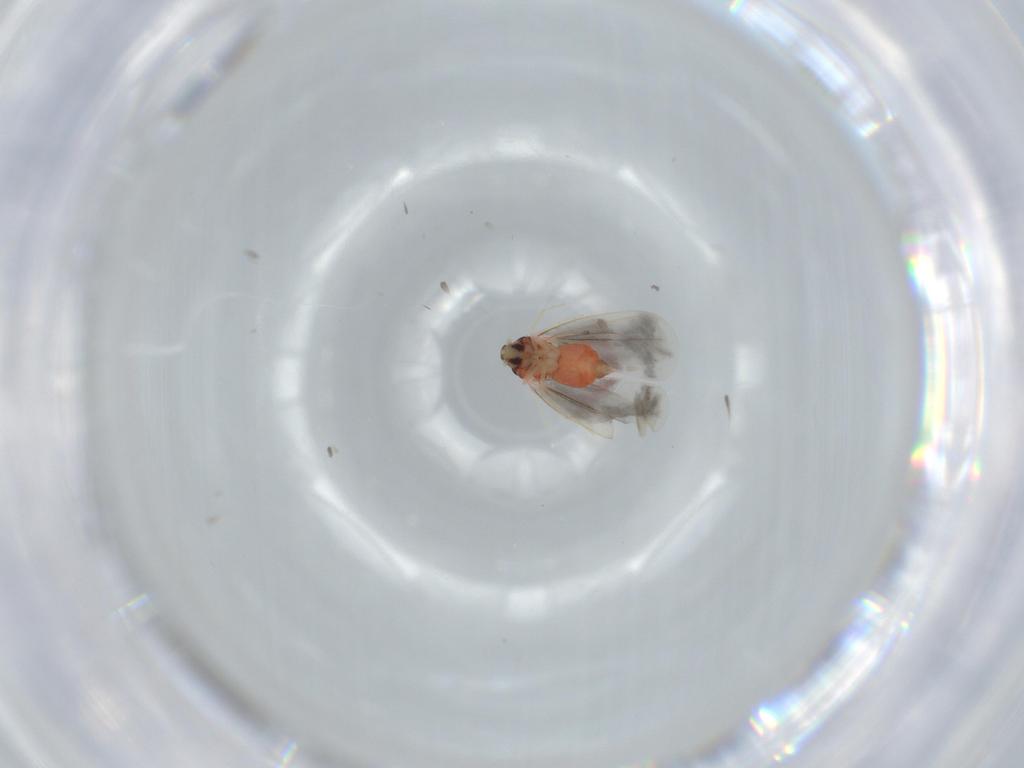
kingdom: Animalia
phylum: Arthropoda
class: Insecta
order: Hemiptera
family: Aleyrodidae
